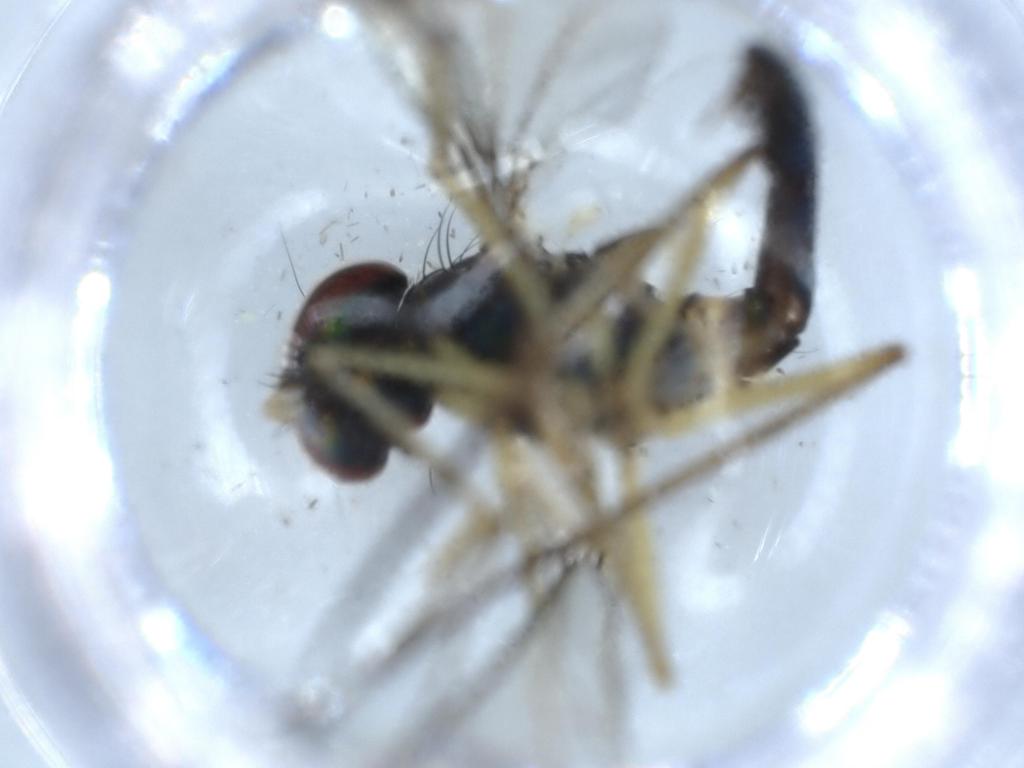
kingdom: Animalia
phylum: Arthropoda
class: Insecta
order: Diptera
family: Dolichopodidae
